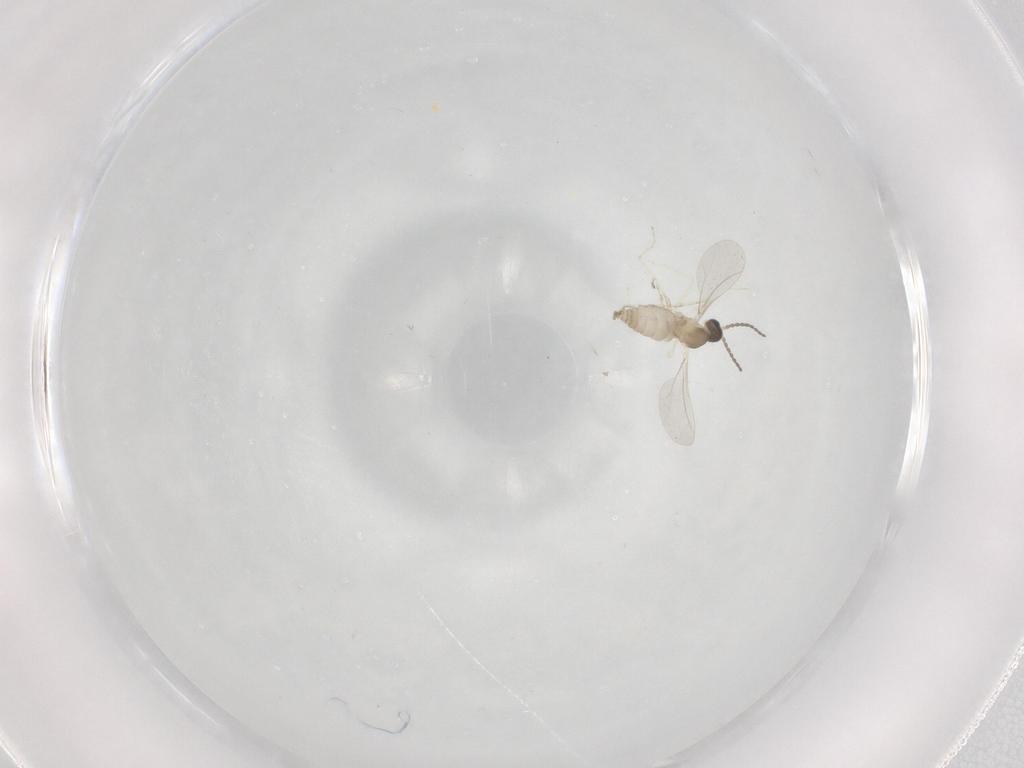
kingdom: Animalia
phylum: Arthropoda
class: Insecta
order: Diptera
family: Cecidomyiidae
